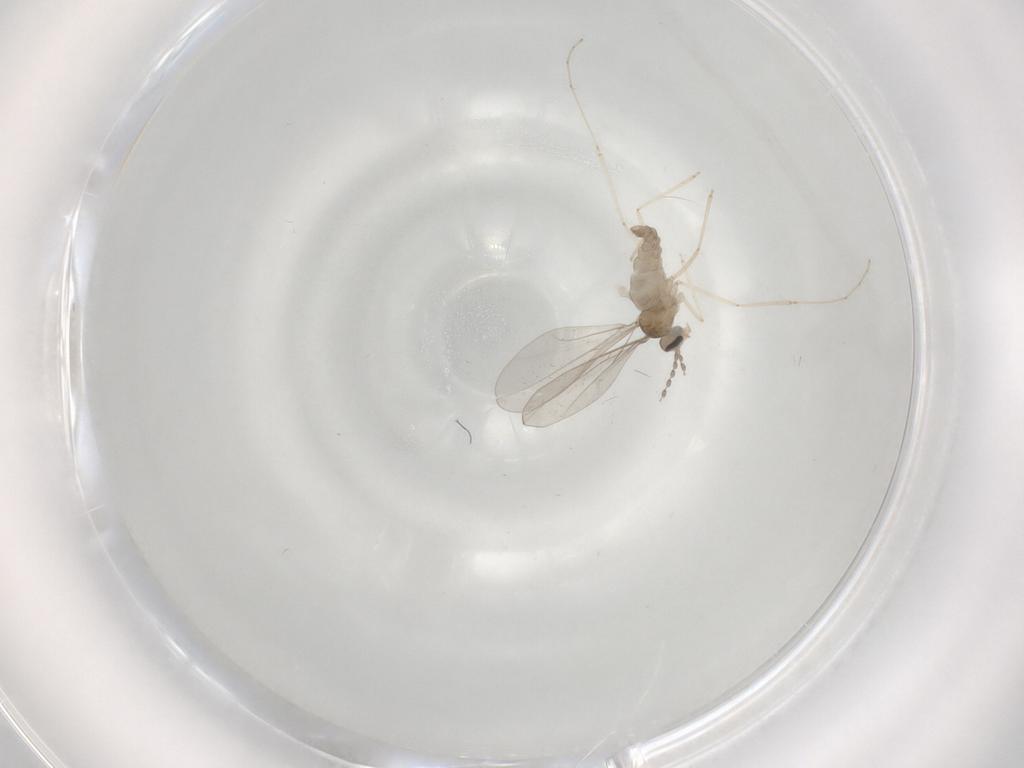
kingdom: Animalia
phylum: Arthropoda
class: Insecta
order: Diptera
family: Cecidomyiidae
